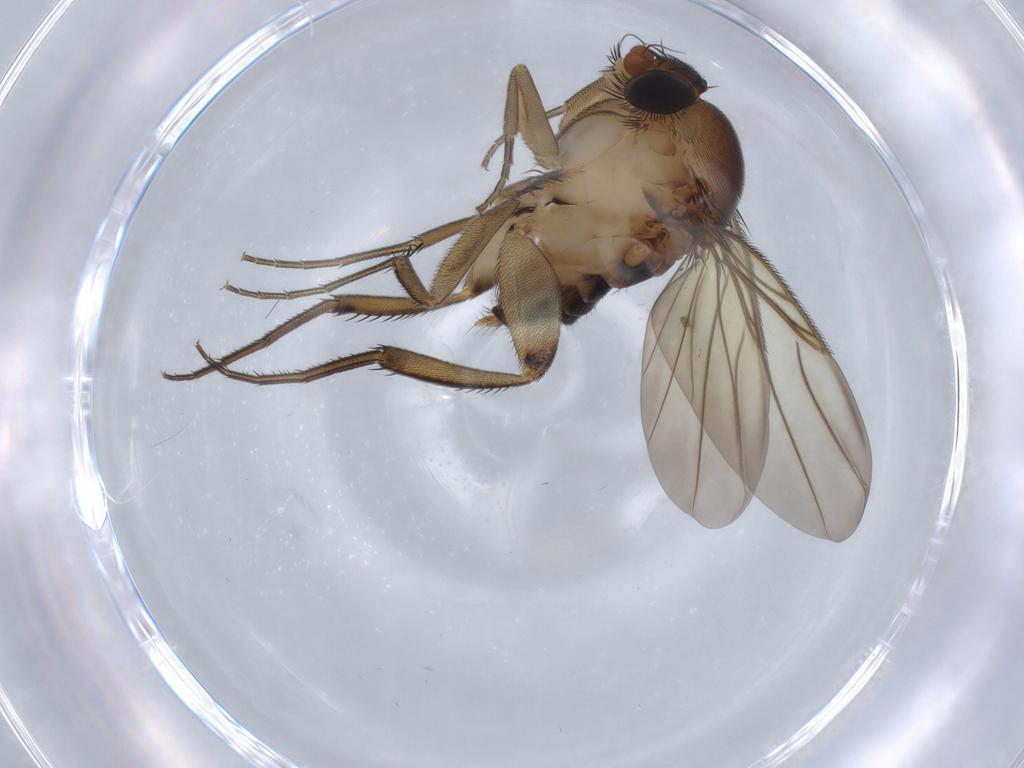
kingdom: Animalia
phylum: Arthropoda
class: Insecta
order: Diptera
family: Phoridae
